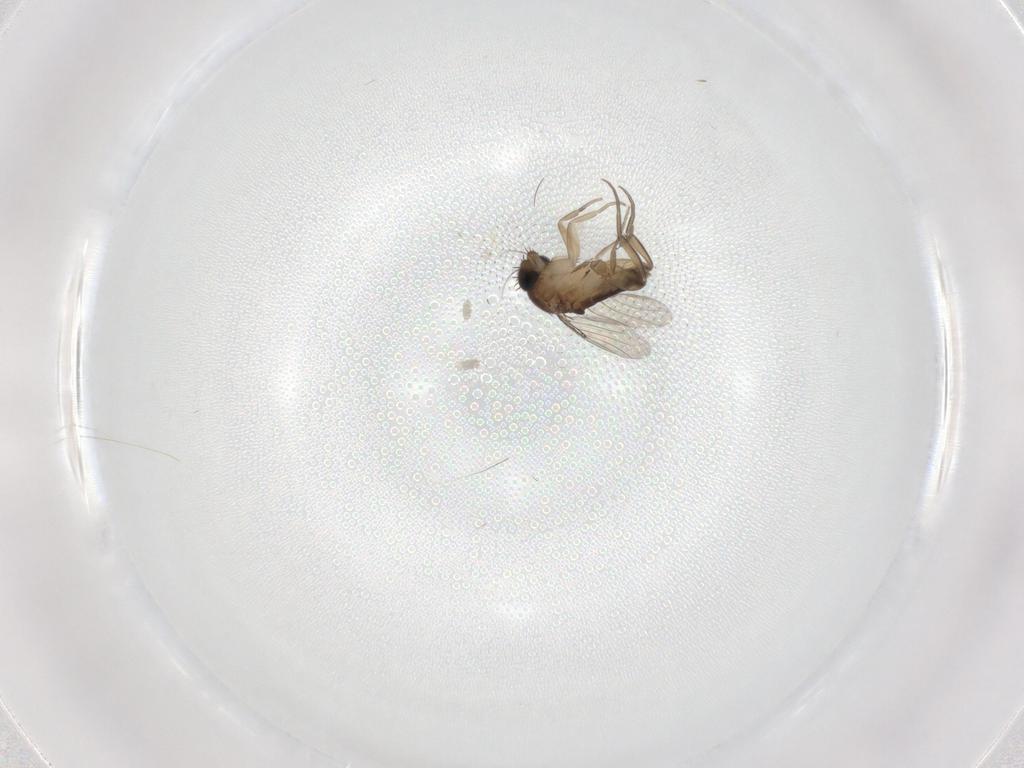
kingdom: Animalia
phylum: Arthropoda
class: Insecta
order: Diptera
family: Phoridae
